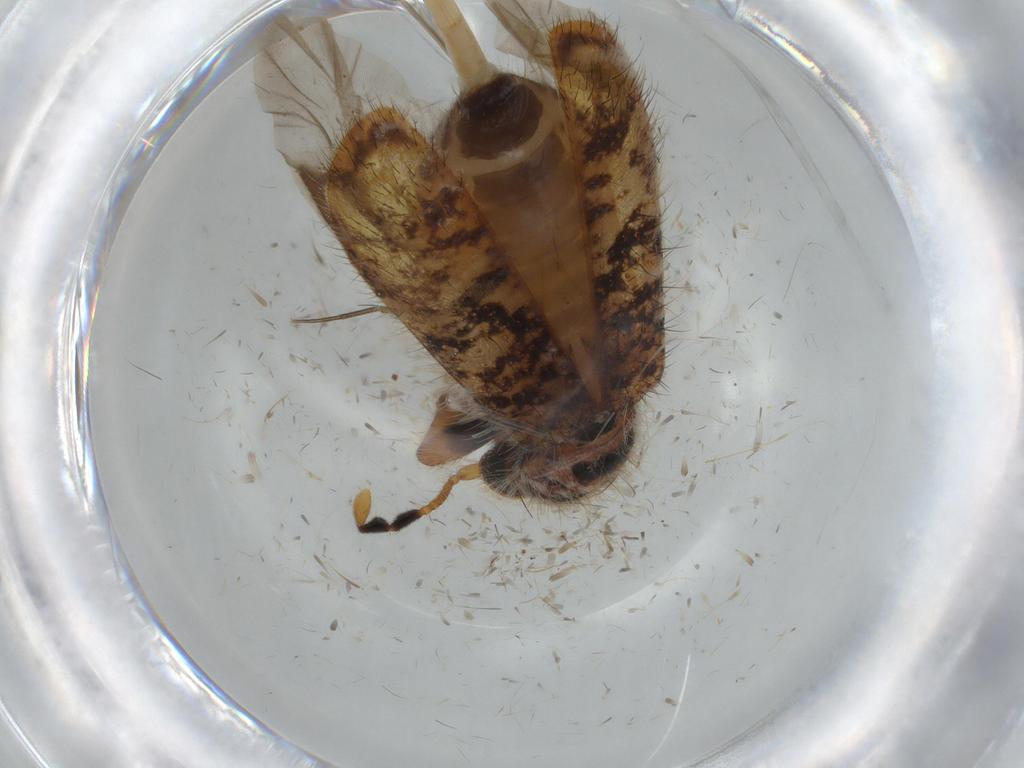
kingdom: Animalia
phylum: Arthropoda
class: Insecta
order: Coleoptera
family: Cleridae
